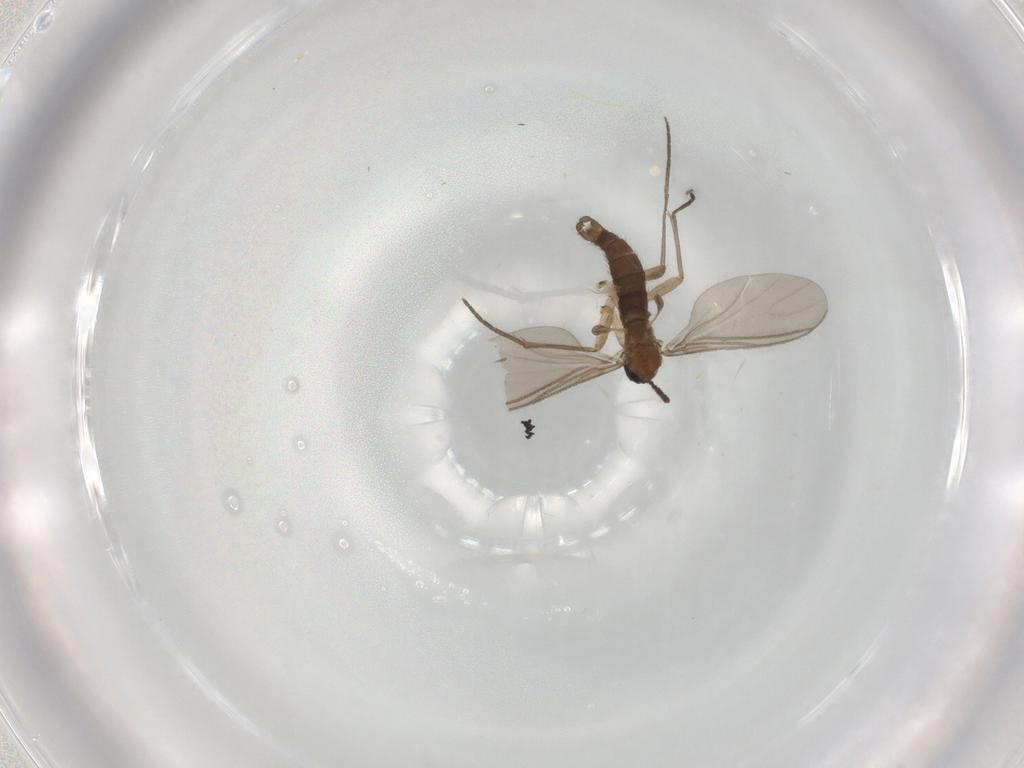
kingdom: Animalia
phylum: Arthropoda
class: Insecta
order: Diptera
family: Sciaridae
